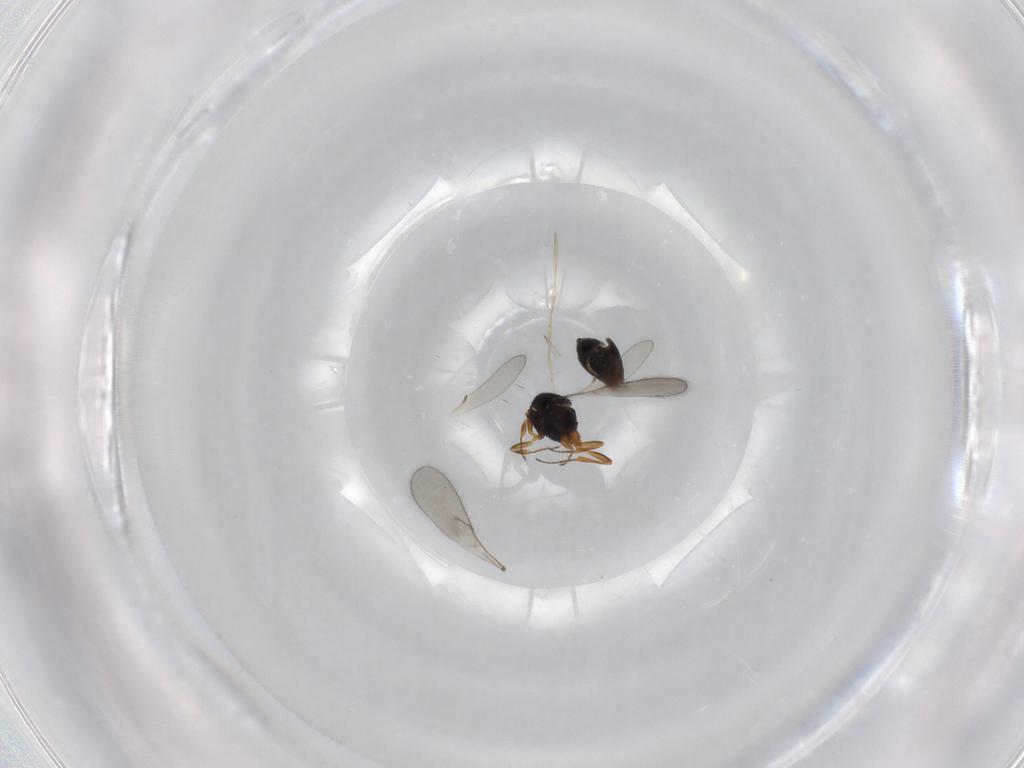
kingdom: Animalia
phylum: Arthropoda
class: Insecta
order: Hymenoptera
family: Scelionidae
